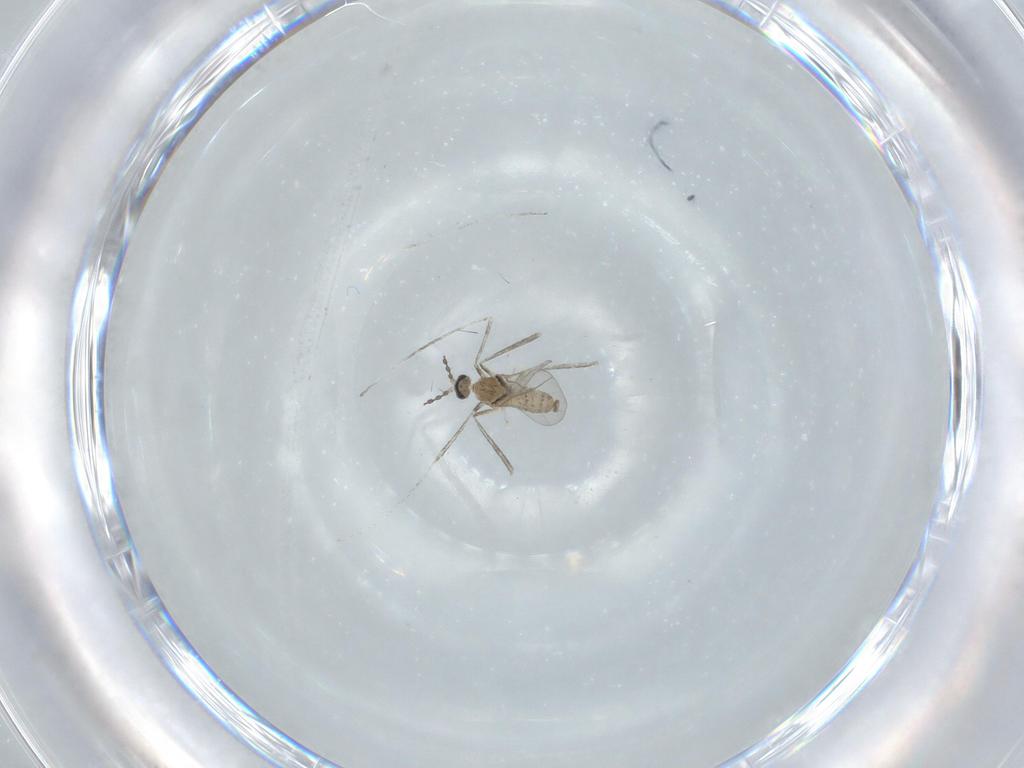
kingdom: Animalia
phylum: Arthropoda
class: Insecta
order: Diptera
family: Cecidomyiidae
